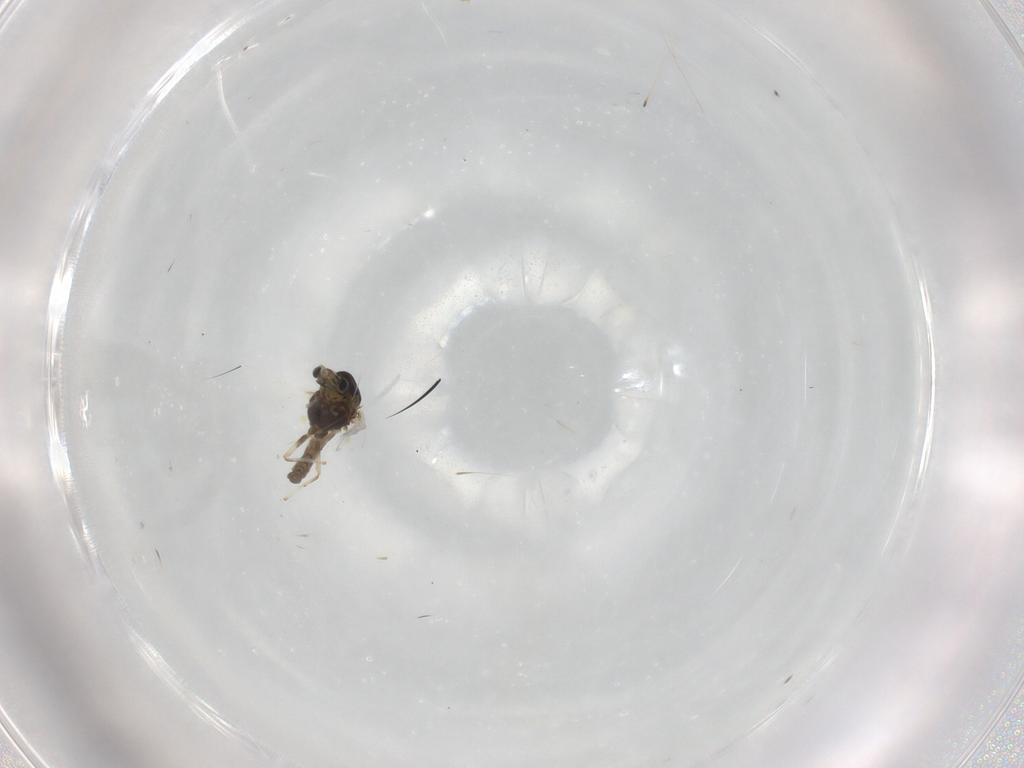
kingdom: Animalia
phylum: Arthropoda
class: Insecta
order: Diptera
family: Chironomidae
